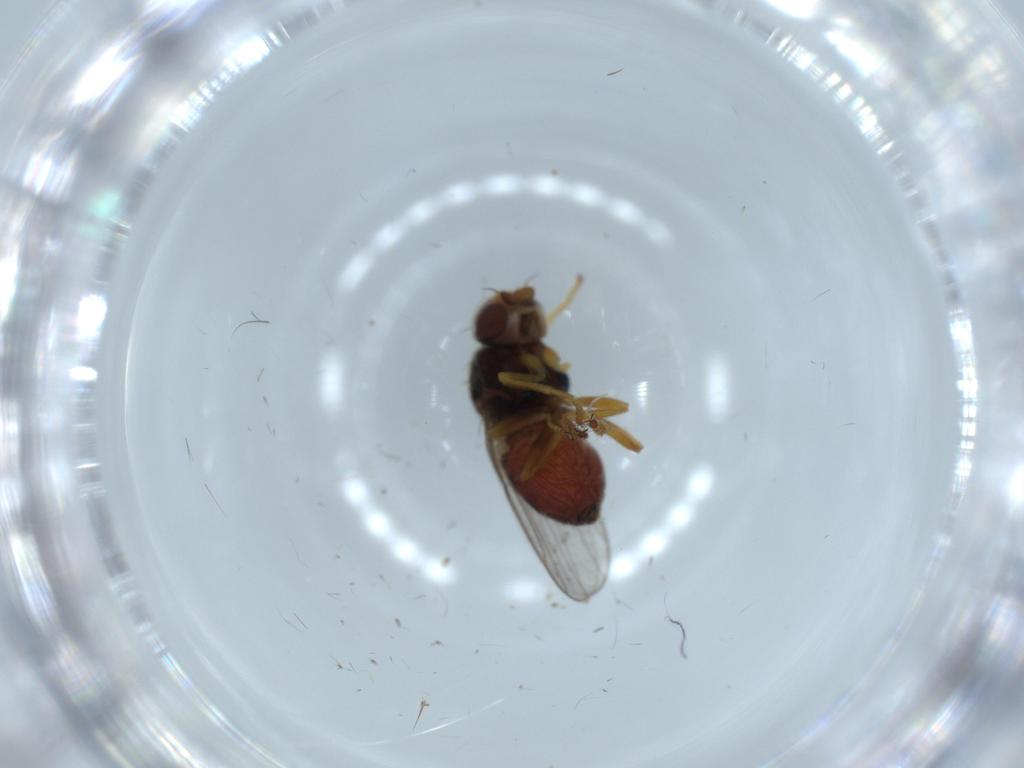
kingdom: Animalia
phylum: Arthropoda
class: Insecta
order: Diptera
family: Chloropidae
